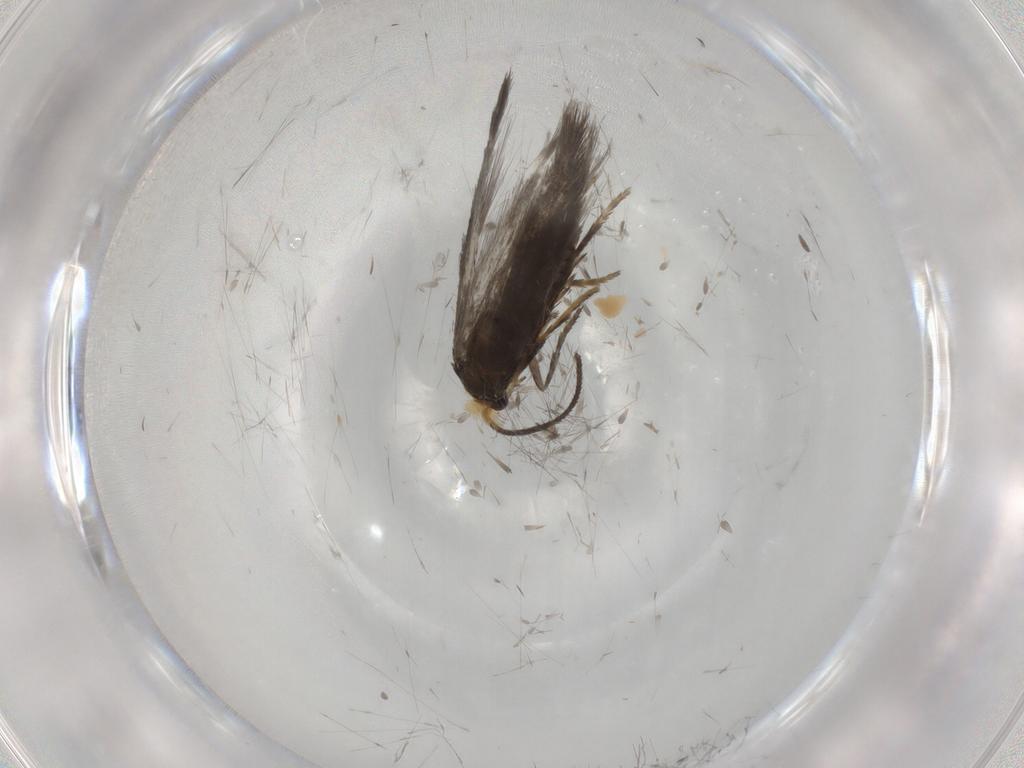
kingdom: Animalia
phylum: Arthropoda
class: Insecta
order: Lepidoptera
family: Nepticulidae
